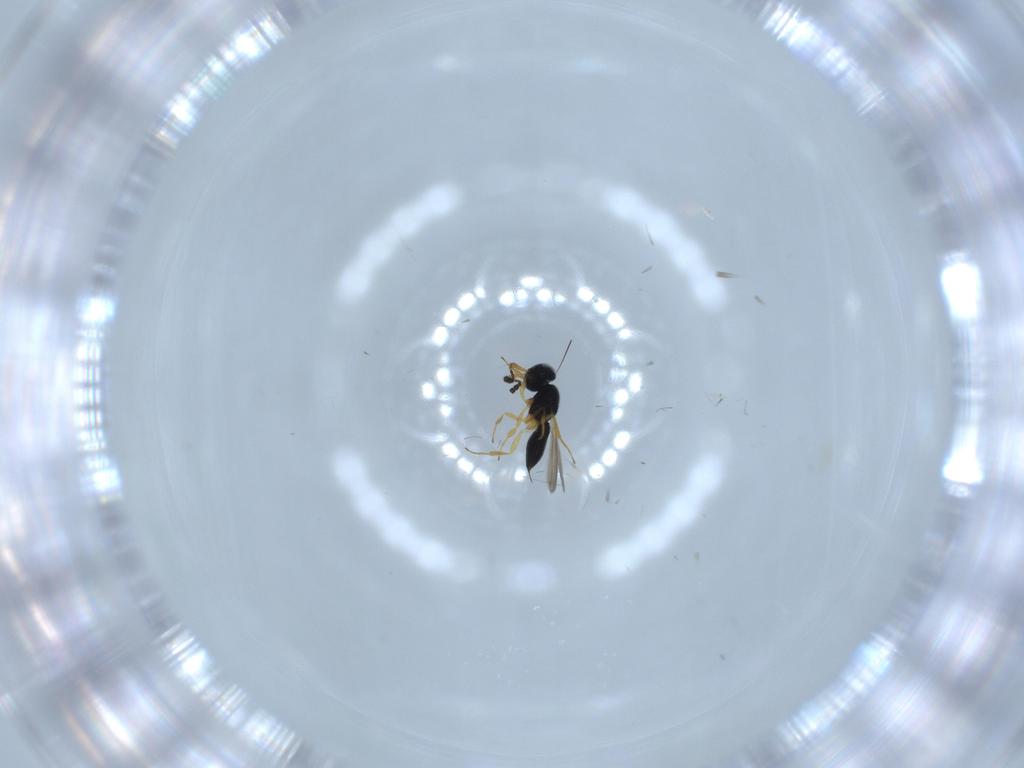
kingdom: Animalia
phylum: Arthropoda
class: Insecta
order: Hymenoptera
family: Scelionidae
